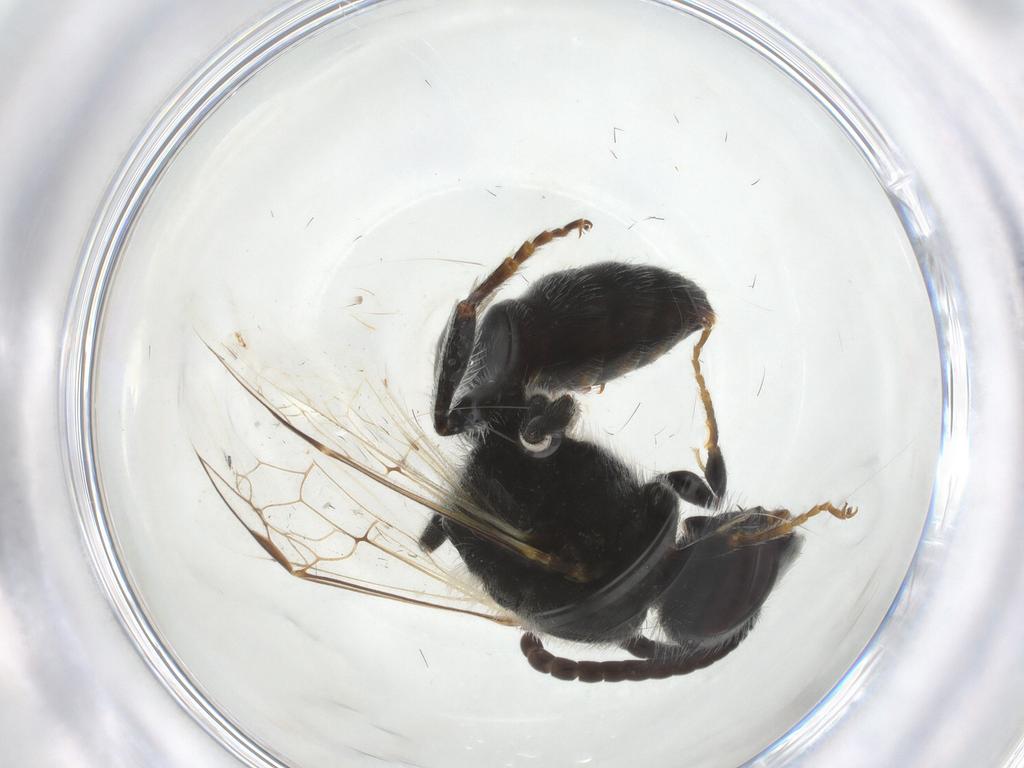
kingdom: Animalia
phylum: Arthropoda
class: Insecta
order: Hymenoptera
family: Halictidae
